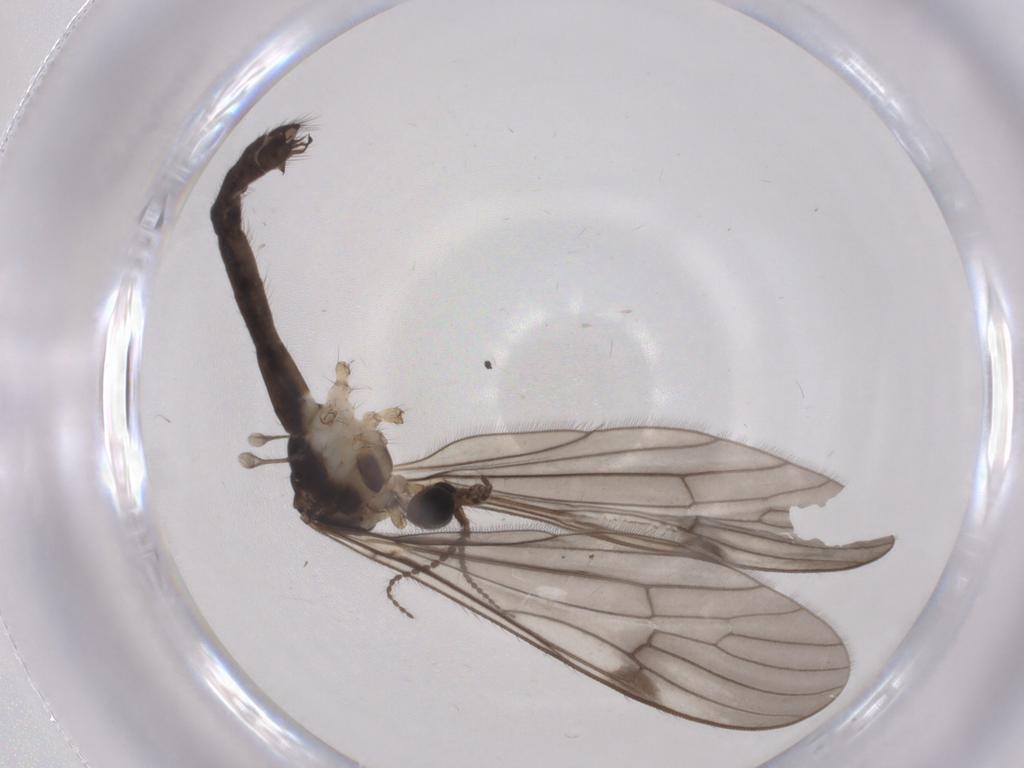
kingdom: Animalia
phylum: Arthropoda
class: Insecta
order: Diptera
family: Limoniidae
